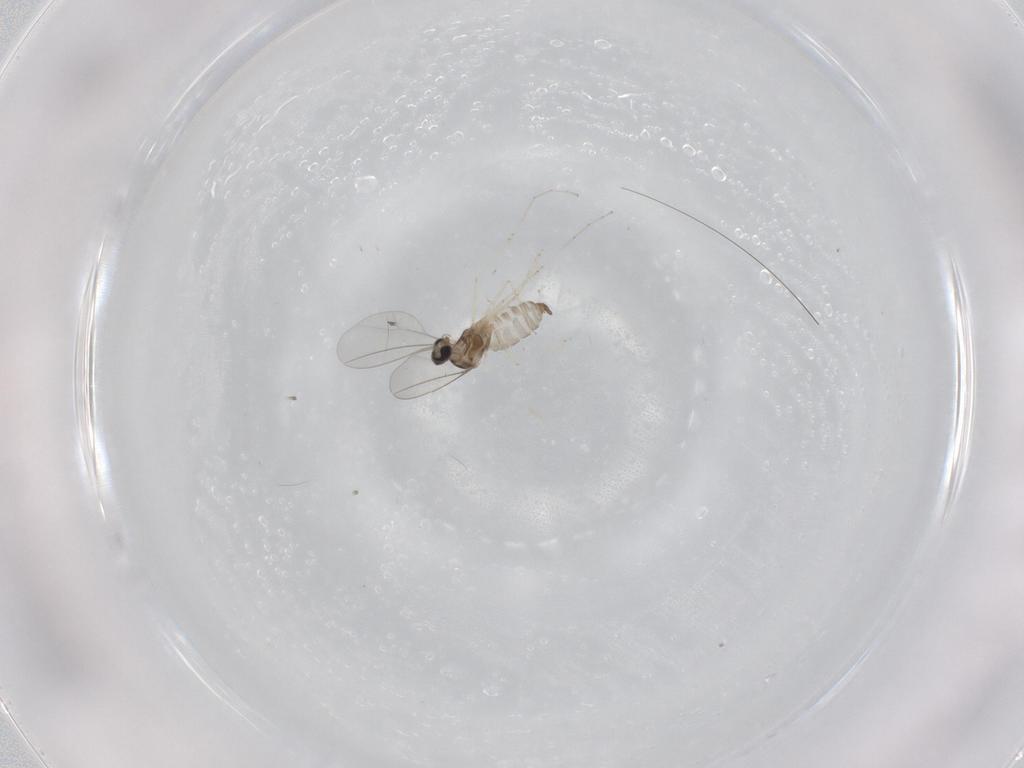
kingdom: Animalia
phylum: Arthropoda
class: Insecta
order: Diptera
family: Cecidomyiidae
